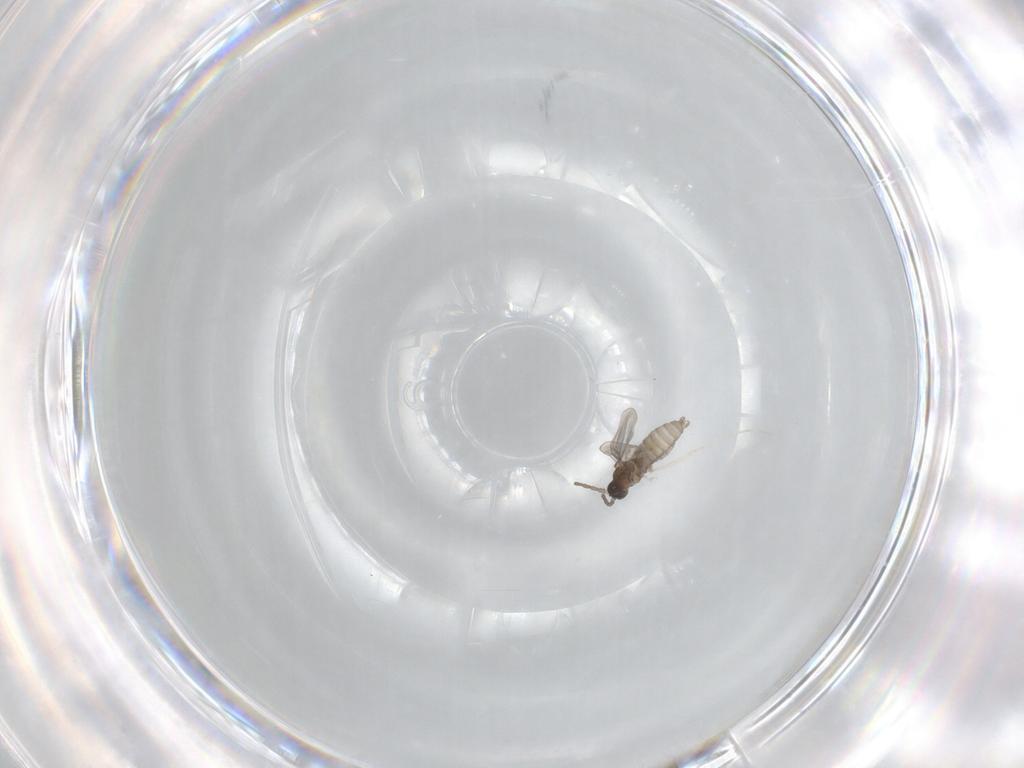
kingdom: Animalia
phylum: Arthropoda
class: Insecta
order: Diptera
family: Cecidomyiidae
